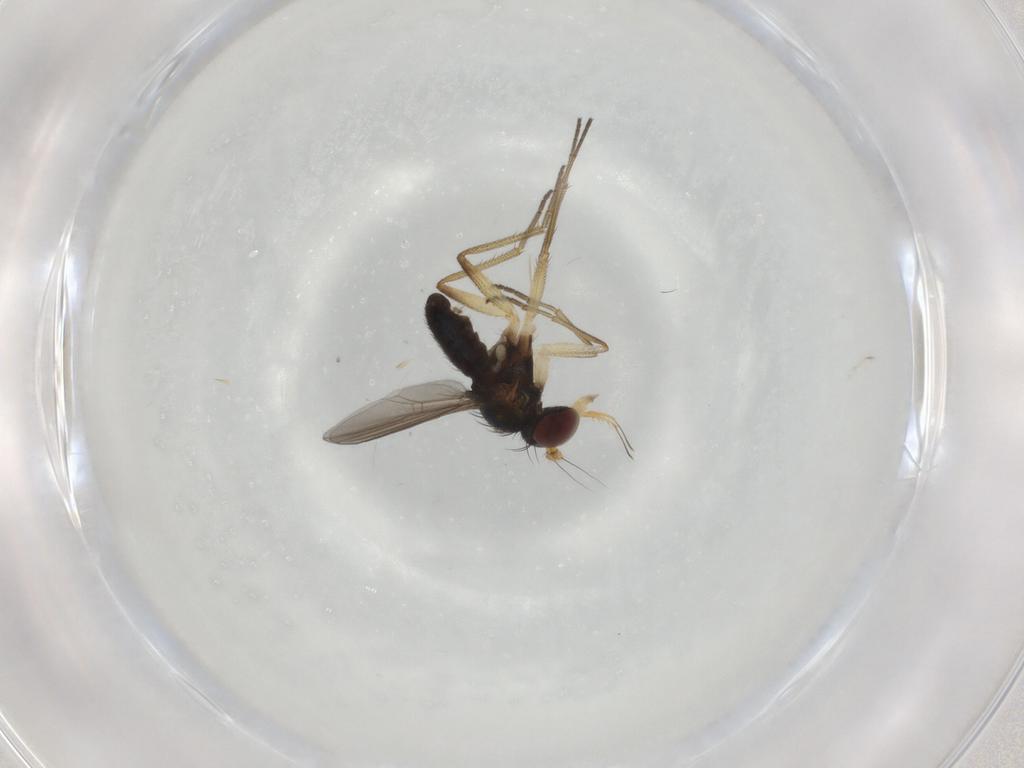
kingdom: Animalia
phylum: Arthropoda
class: Insecta
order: Diptera
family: Dolichopodidae
